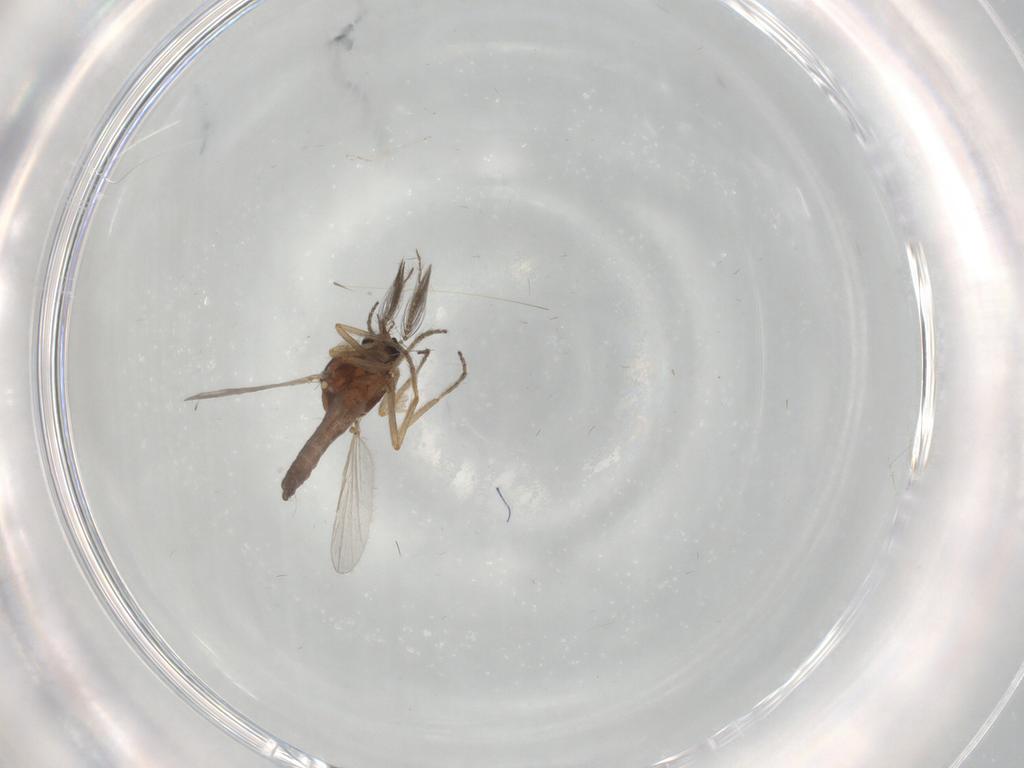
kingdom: Animalia
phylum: Arthropoda
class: Insecta
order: Diptera
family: Ceratopogonidae
